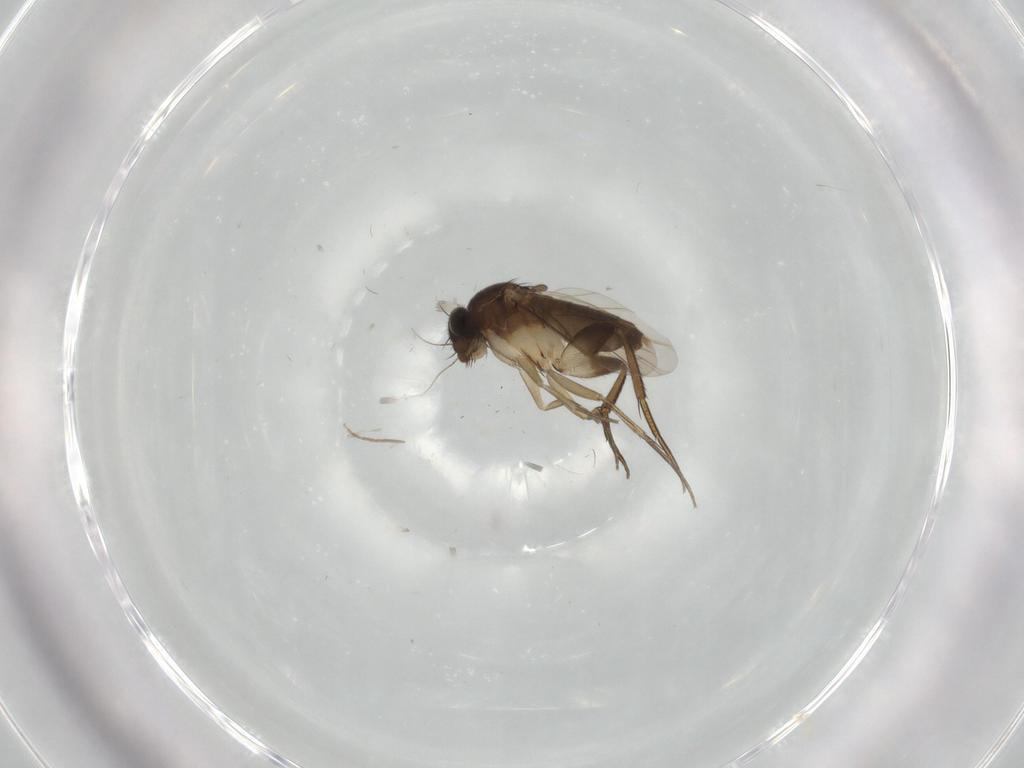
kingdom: Animalia
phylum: Arthropoda
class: Insecta
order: Diptera
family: Phoridae
